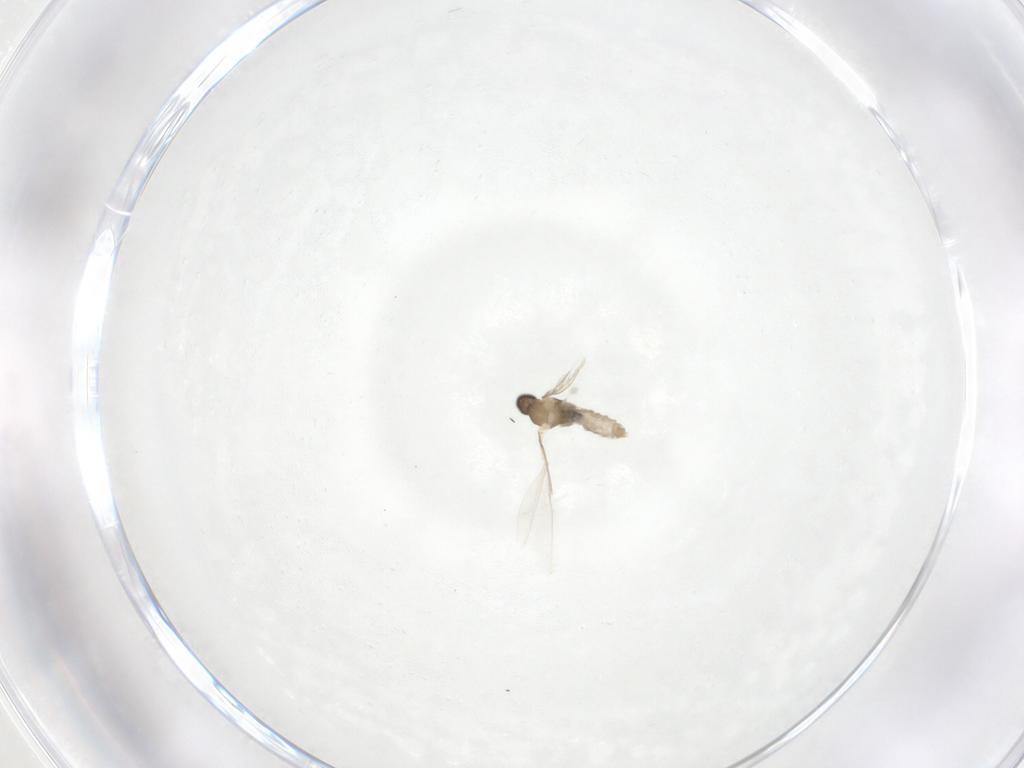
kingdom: Animalia
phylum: Arthropoda
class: Insecta
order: Diptera
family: Cecidomyiidae
